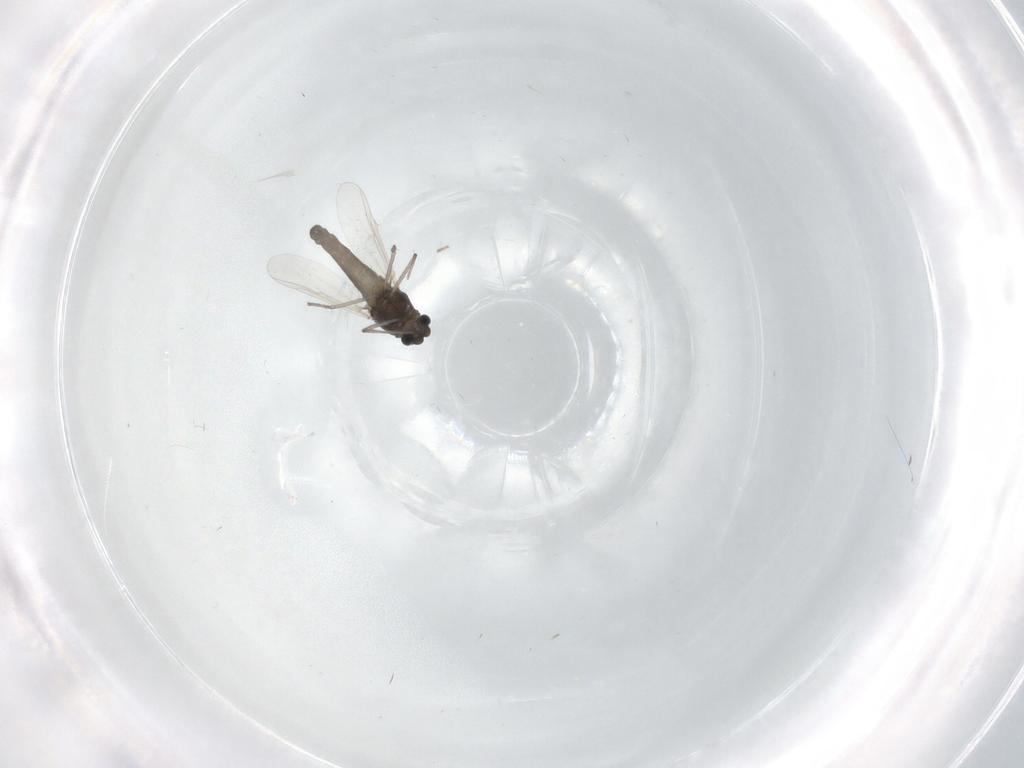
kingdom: Animalia
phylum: Arthropoda
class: Insecta
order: Diptera
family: Chironomidae
